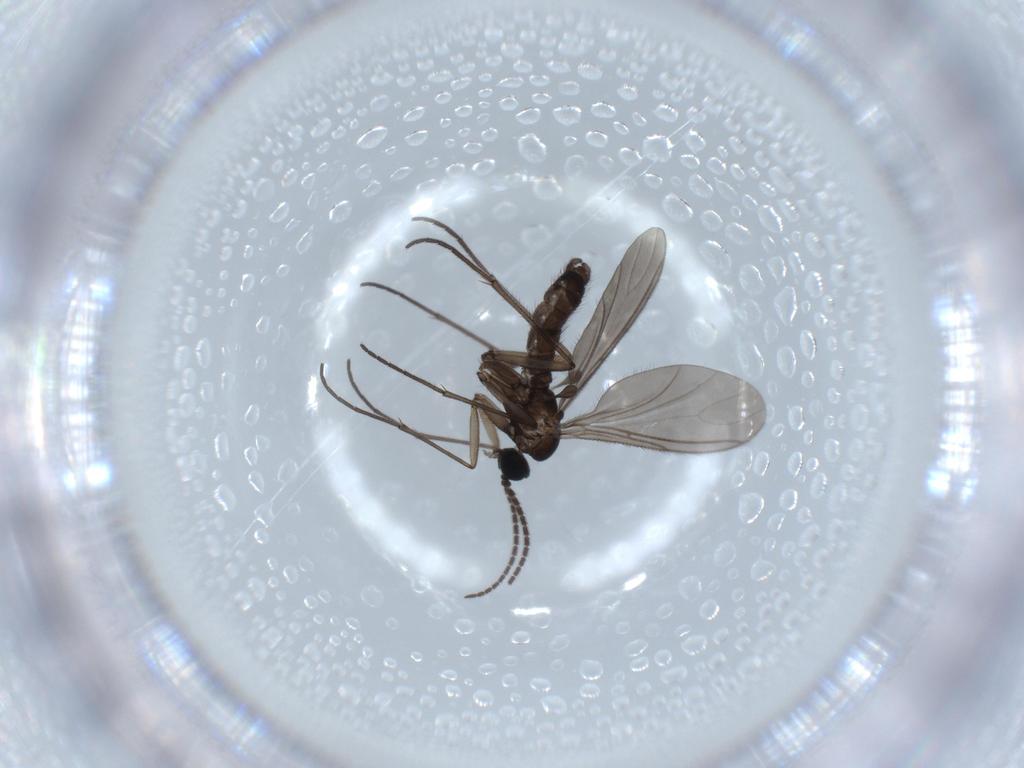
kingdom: Animalia
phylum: Arthropoda
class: Insecta
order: Diptera
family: Sciaridae
